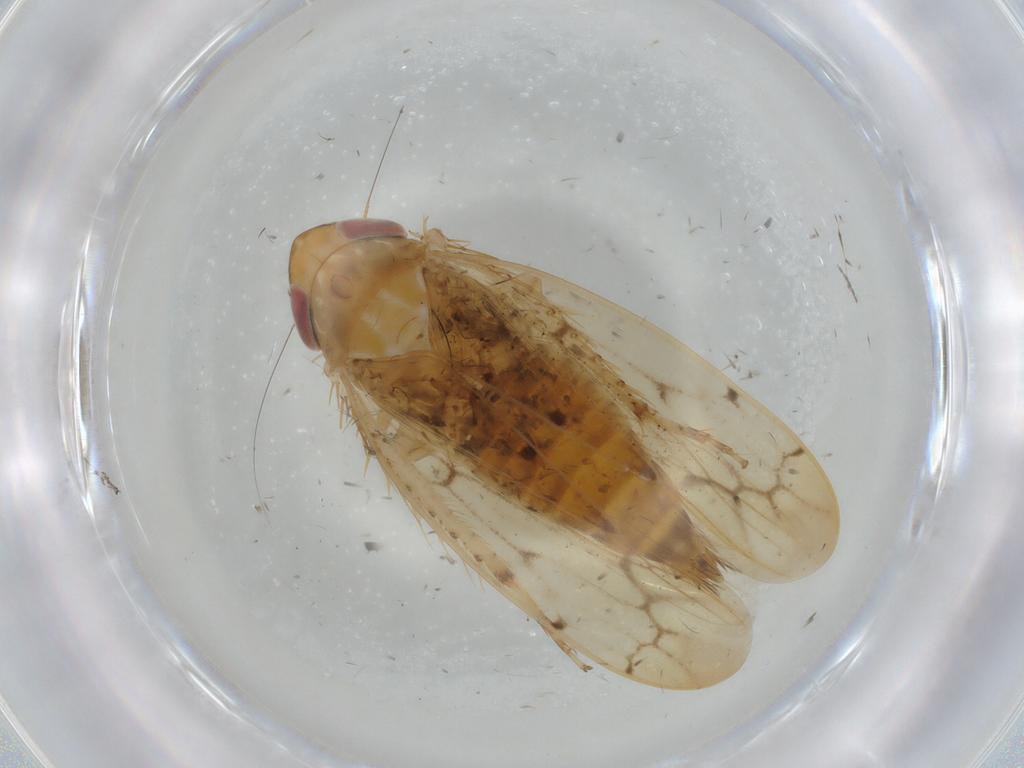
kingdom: Animalia
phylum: Arthropoda
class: Insecta
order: Hemiptera
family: Cicadellidae
